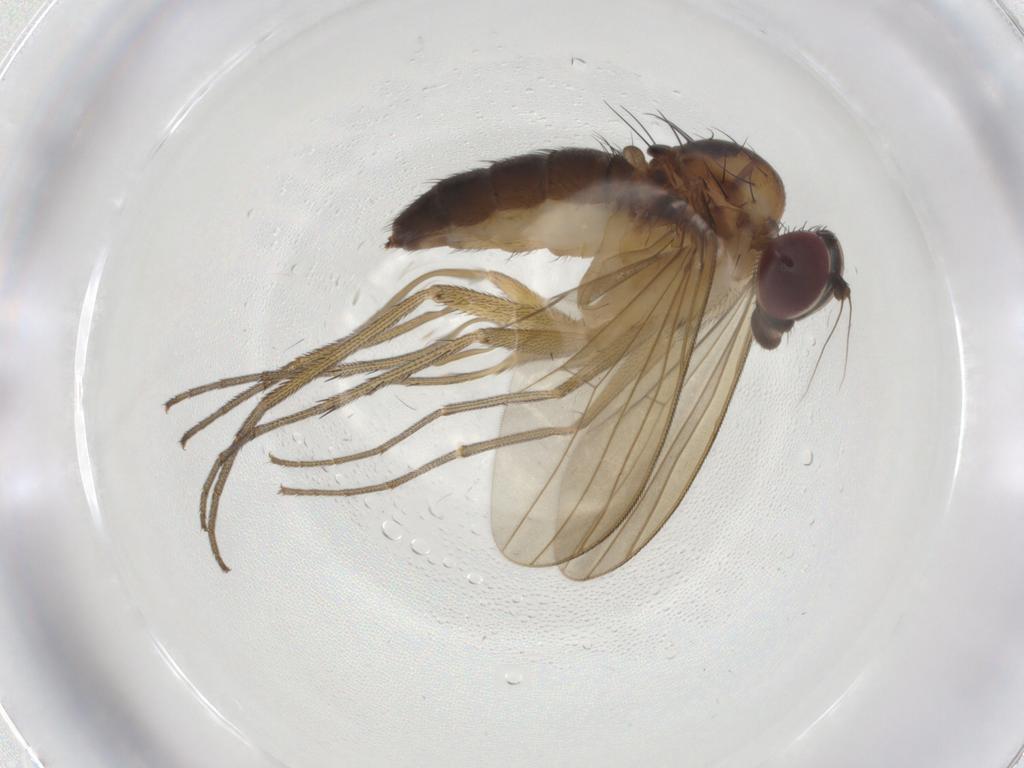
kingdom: Animalia
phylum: Arthropoda
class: Insecta
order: Diptera
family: Dolichopodidae
